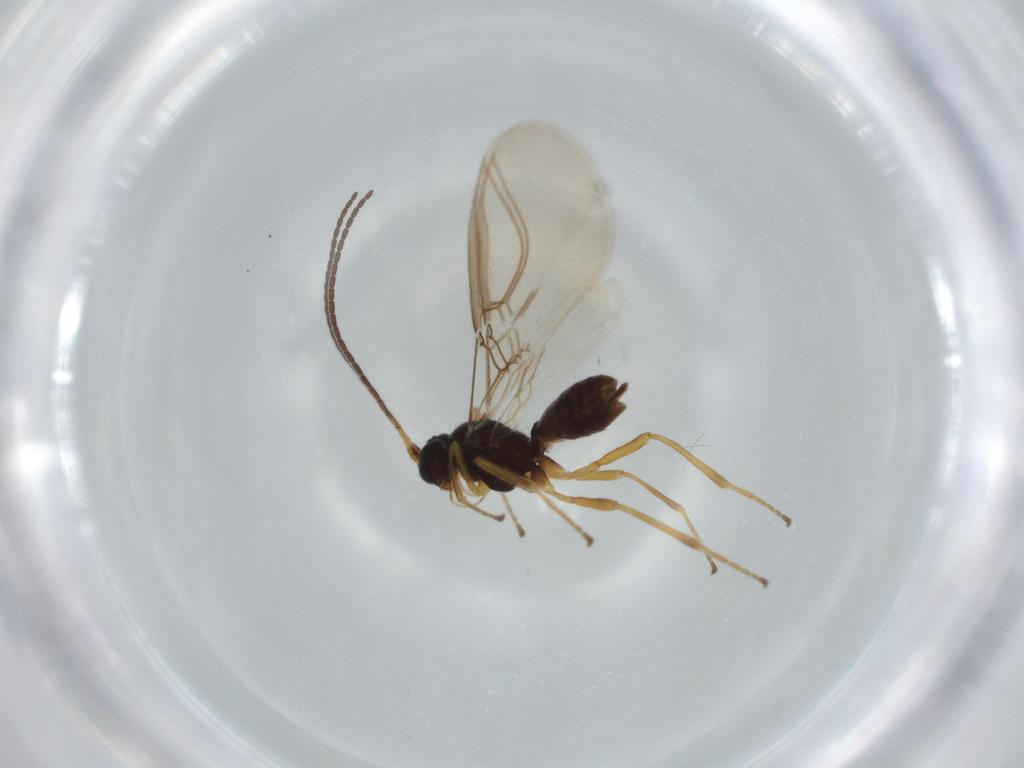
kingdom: Animalia
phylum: Arthropoda
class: Insecta
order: Hymenoptera
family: Braconidae
